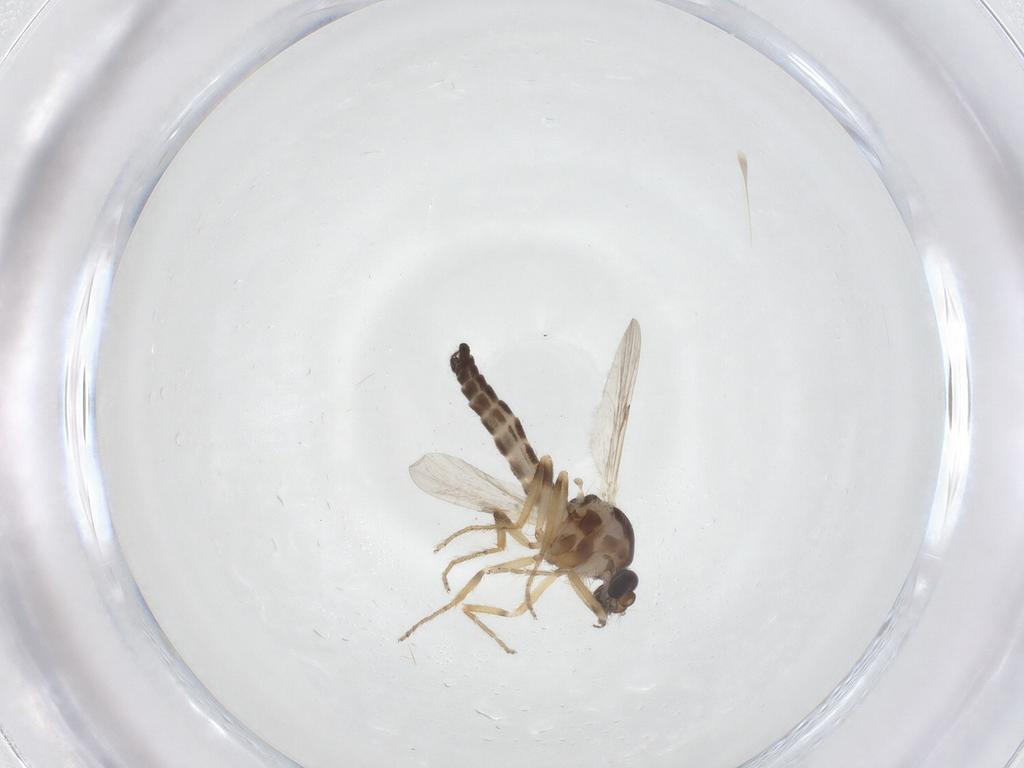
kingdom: Animalia
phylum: Arthropoda
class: Insecta
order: Diptera
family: Ceratopogonidae
